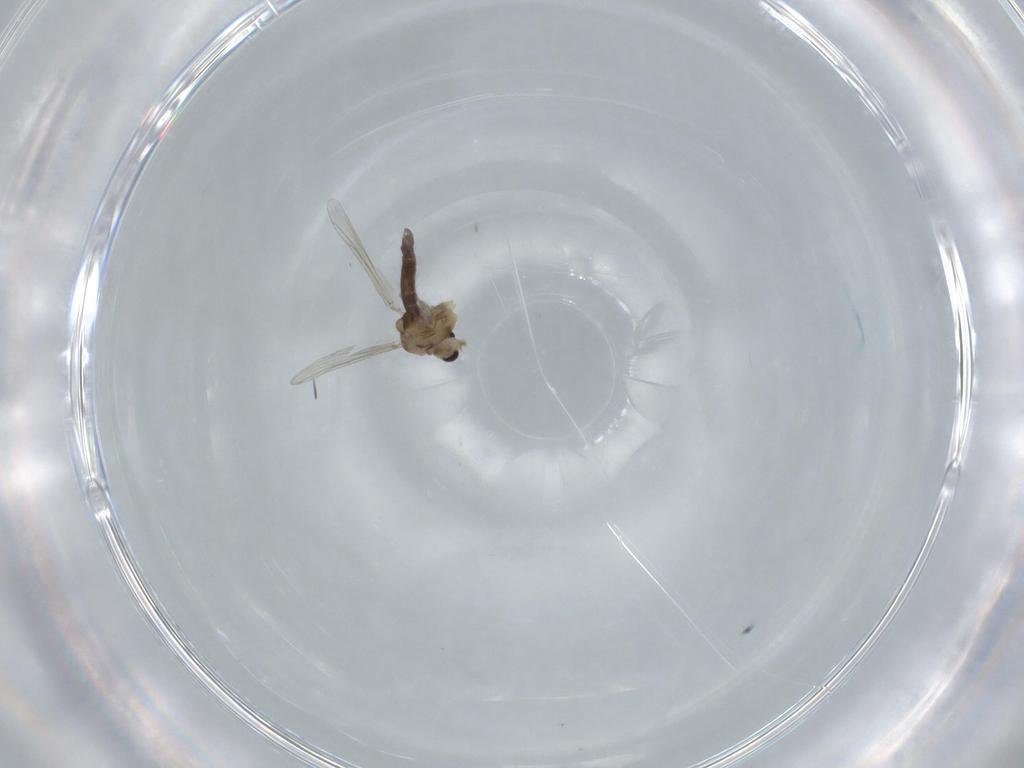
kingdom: Animalia
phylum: Arthropoda
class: Insecta
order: Diptera
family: Chironomidae
